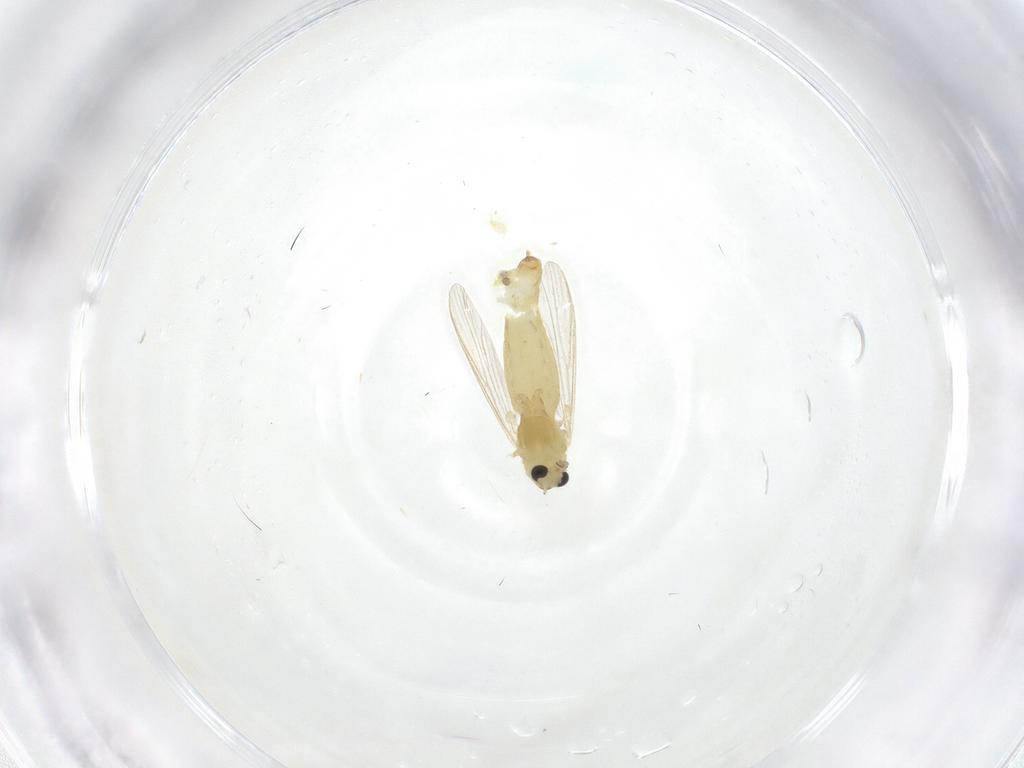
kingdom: Animalia
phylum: Arthropoda
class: Insecta
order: Diptera
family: Chironomidae
